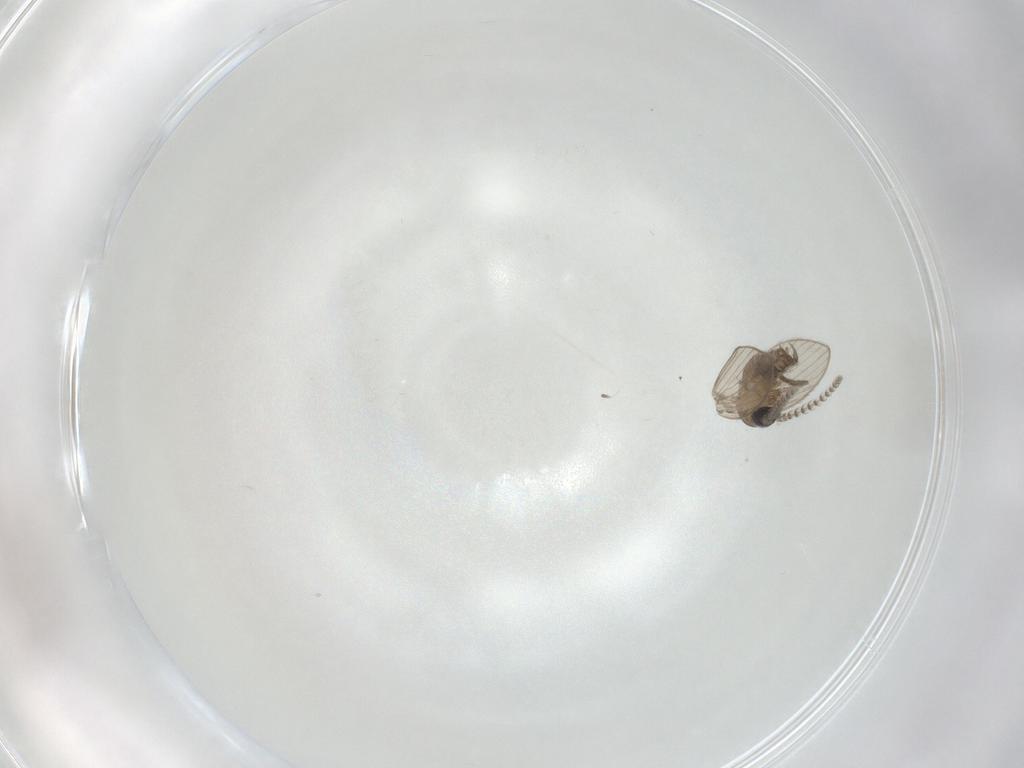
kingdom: Animalia
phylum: Arthropoda
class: Insecta
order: Diptera
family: Psychodidae
